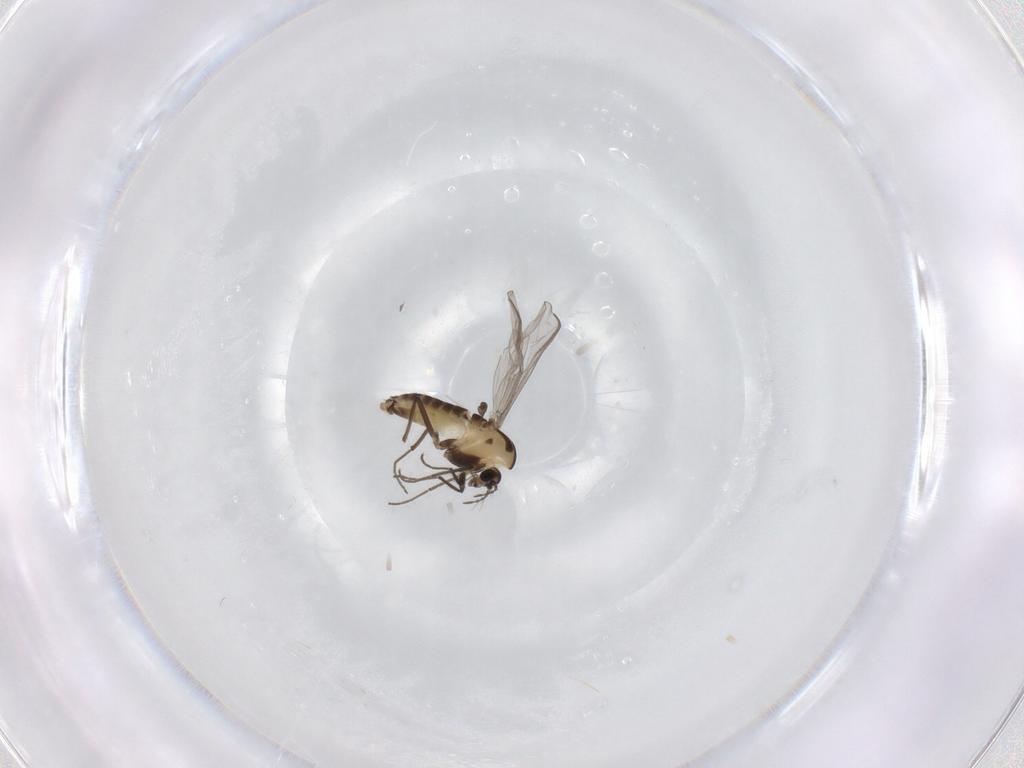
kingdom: Animalia
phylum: Arthropoda
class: Insecta
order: Diptera
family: Chironomidae
